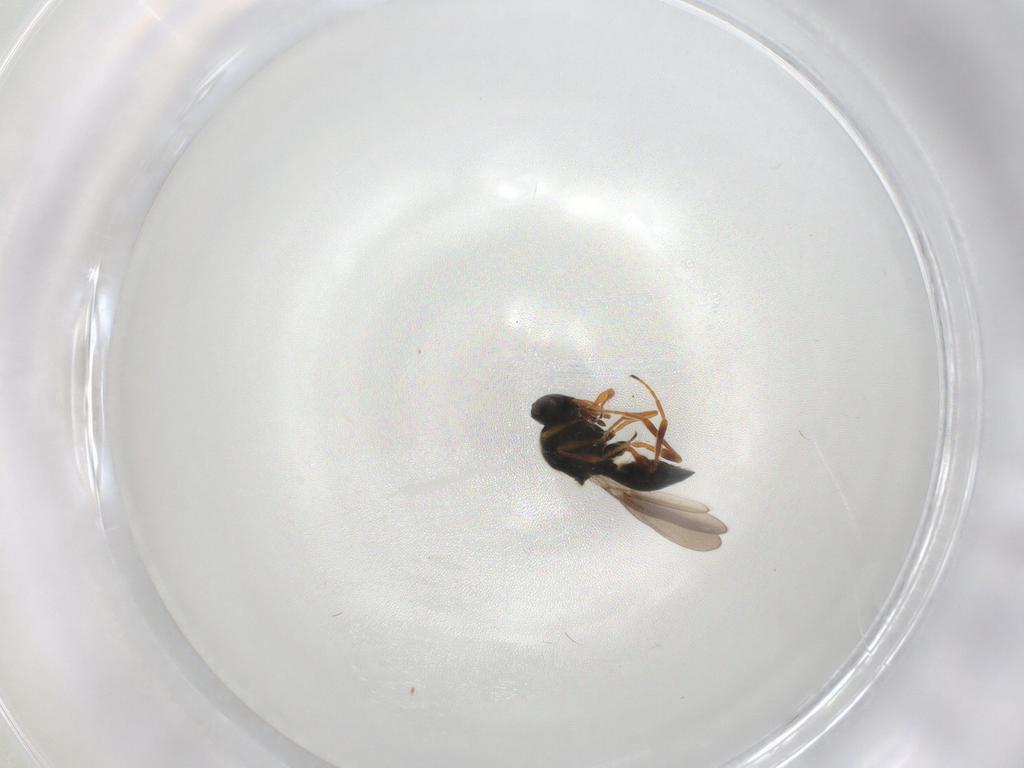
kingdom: Animalia
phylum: Arthropoda
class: Insecta
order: Hymenoptera
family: Platygastridae
